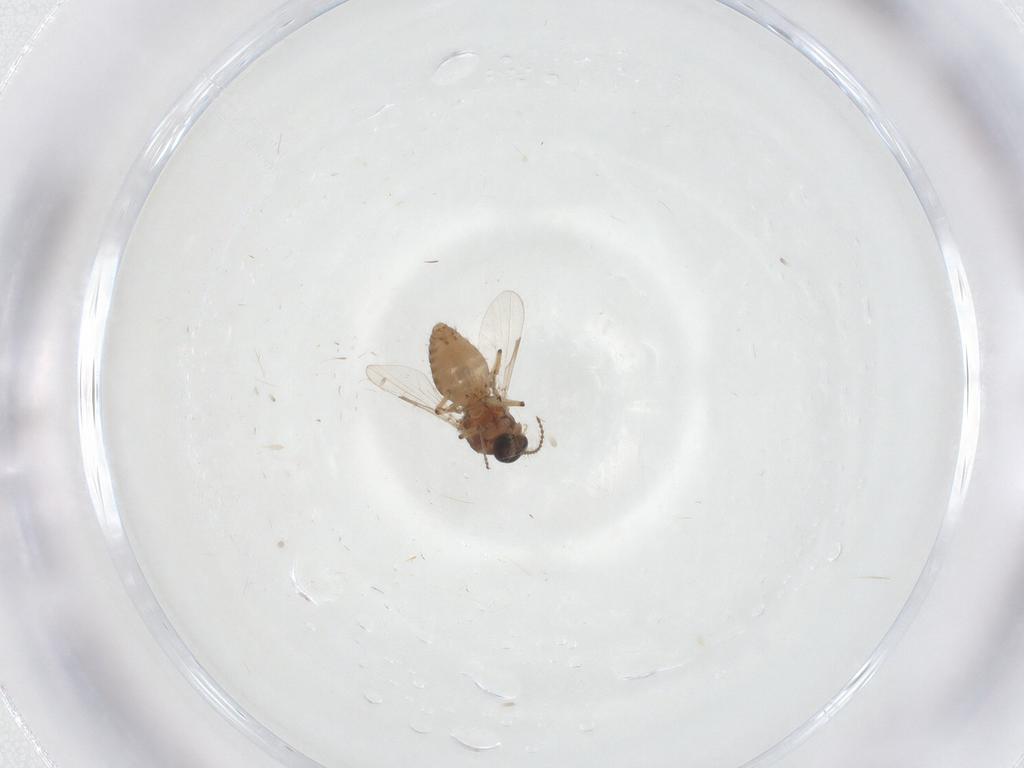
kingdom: Animalia
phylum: Arthropoda
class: Insecta
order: Diptera
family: Ceratopogonidae
